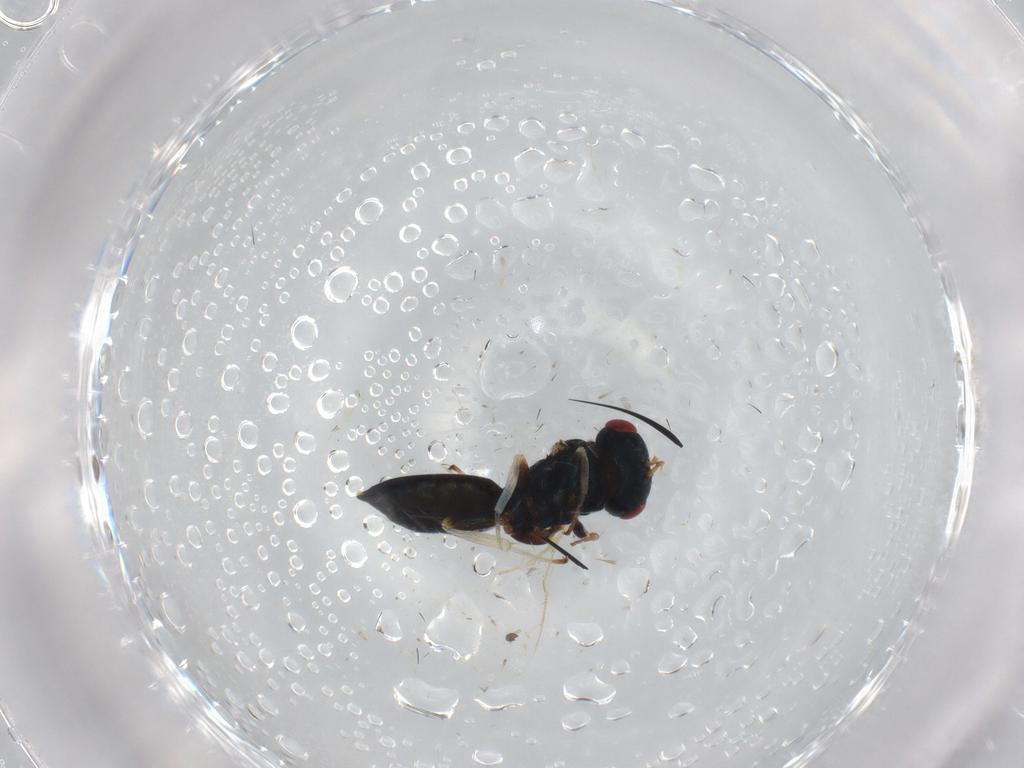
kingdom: Animalia
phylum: Arthropoda
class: Insecta
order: Hymenoptera
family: Pteromalidae
